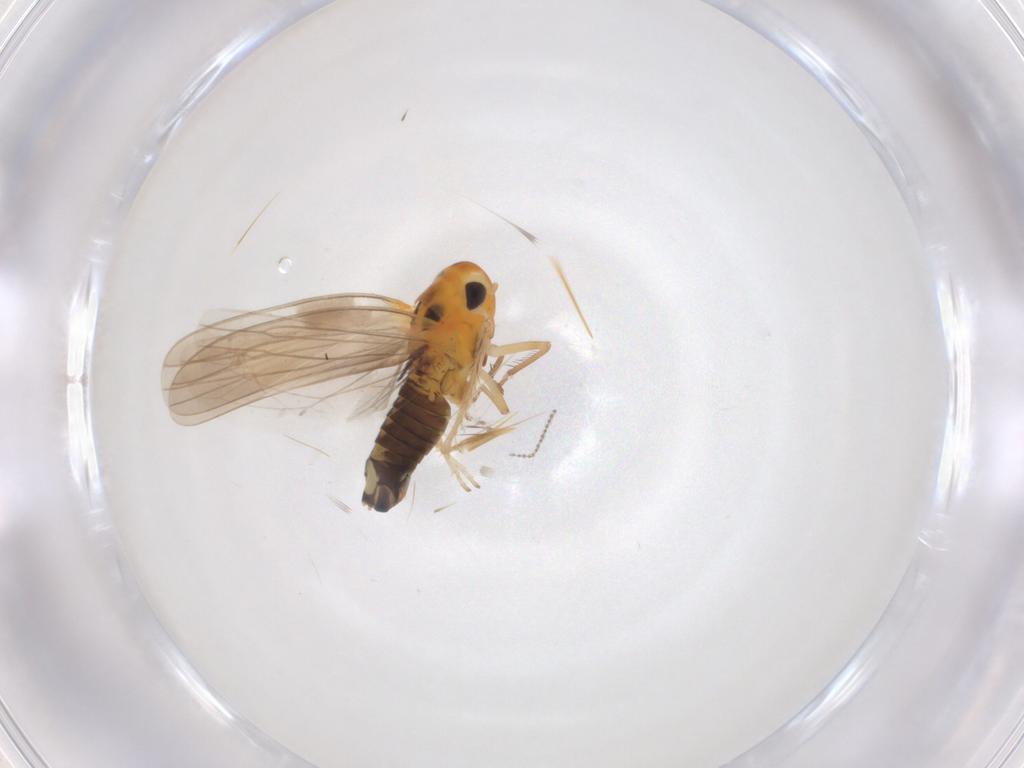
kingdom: Animalia
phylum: Arthropoda
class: Insecta
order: Hemiptera
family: Cicadellidae
